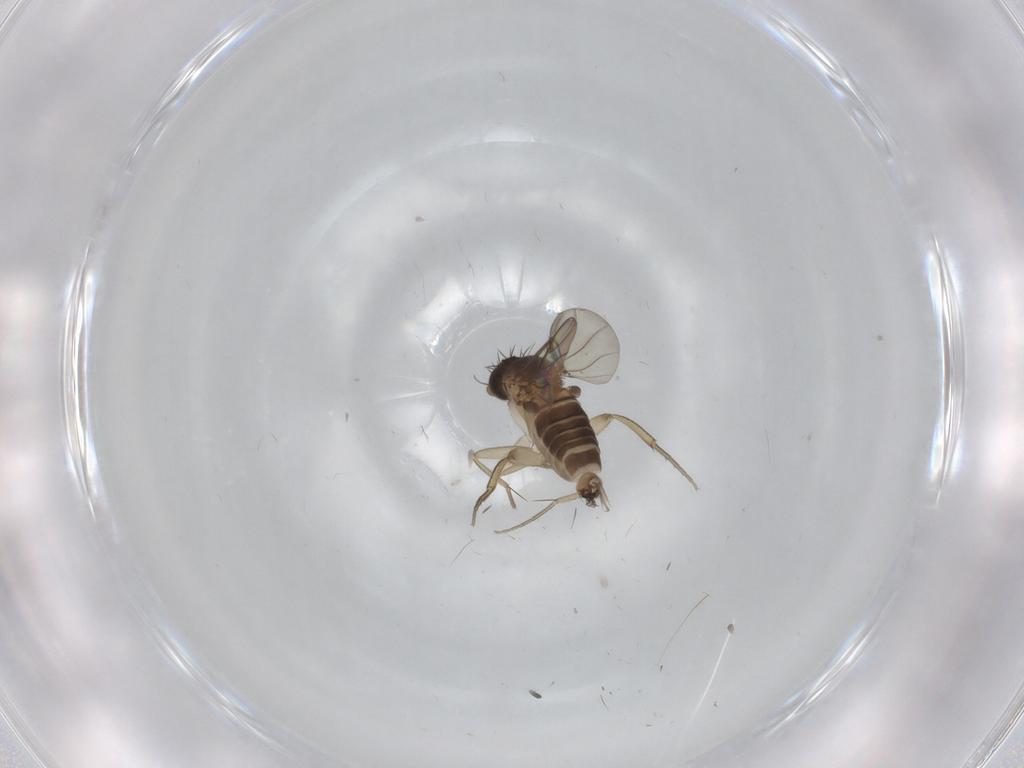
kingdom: Animalia
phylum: Arthropoda
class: Insecta
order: Diptera
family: Phoridae
